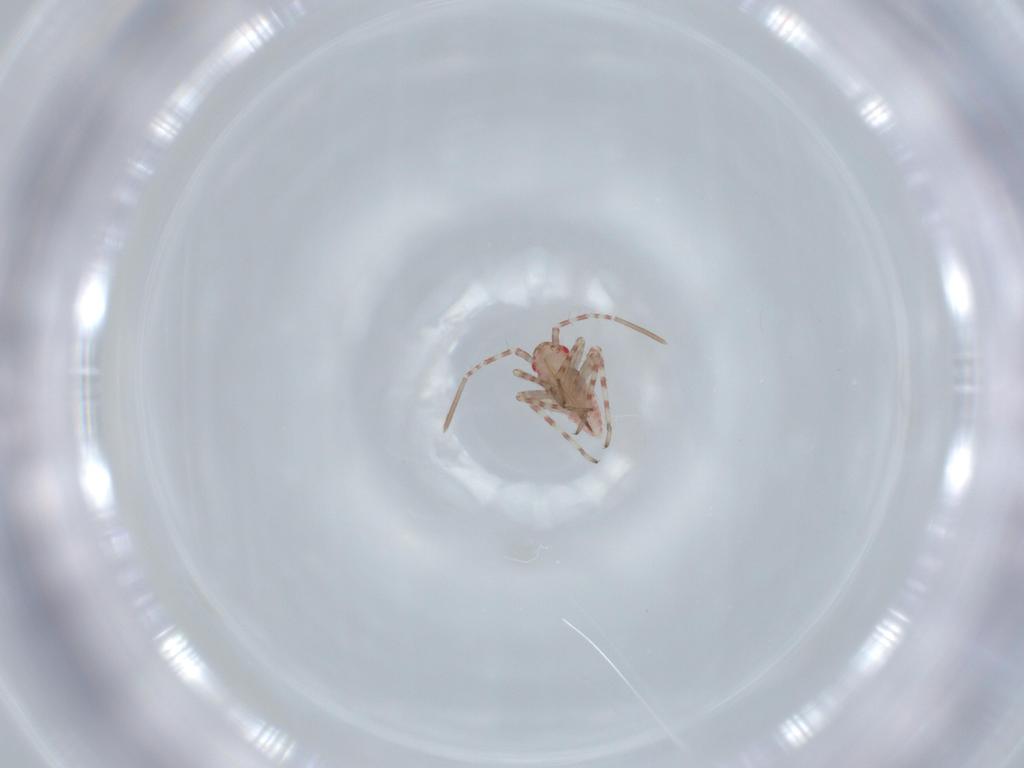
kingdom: Animalia
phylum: Arthropoda
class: Insecta
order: Hemiptera
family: Miridae
